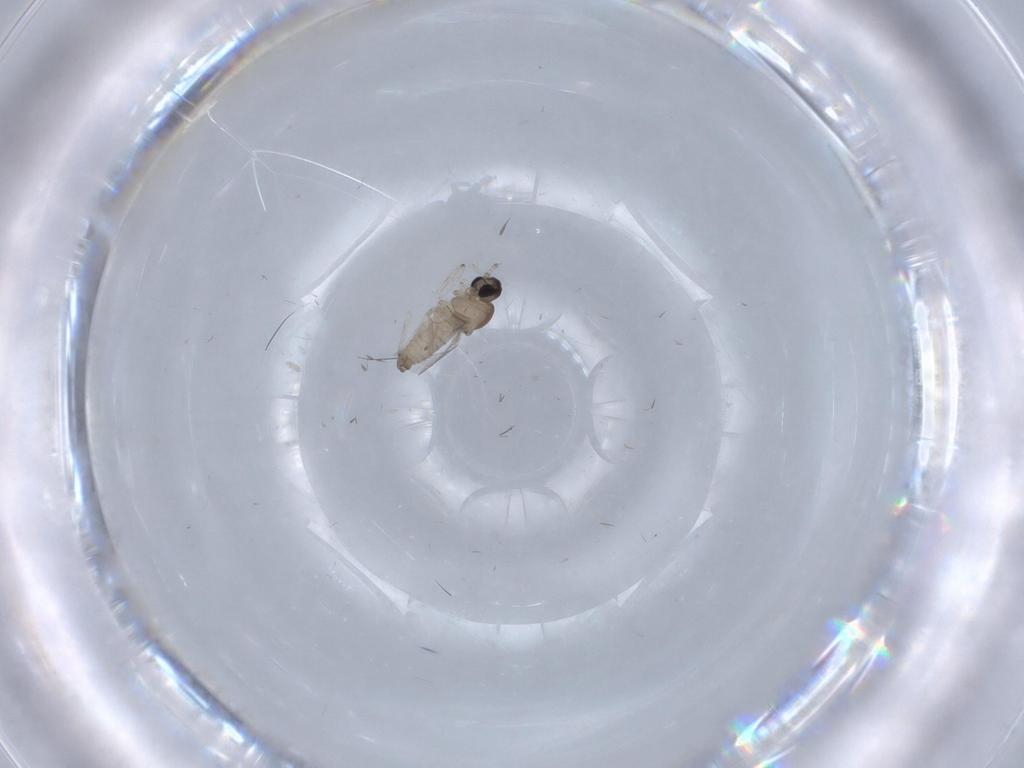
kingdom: Animalia
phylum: Arthropoda
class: Insecta
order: Diptera
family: Cecidomyiidae
